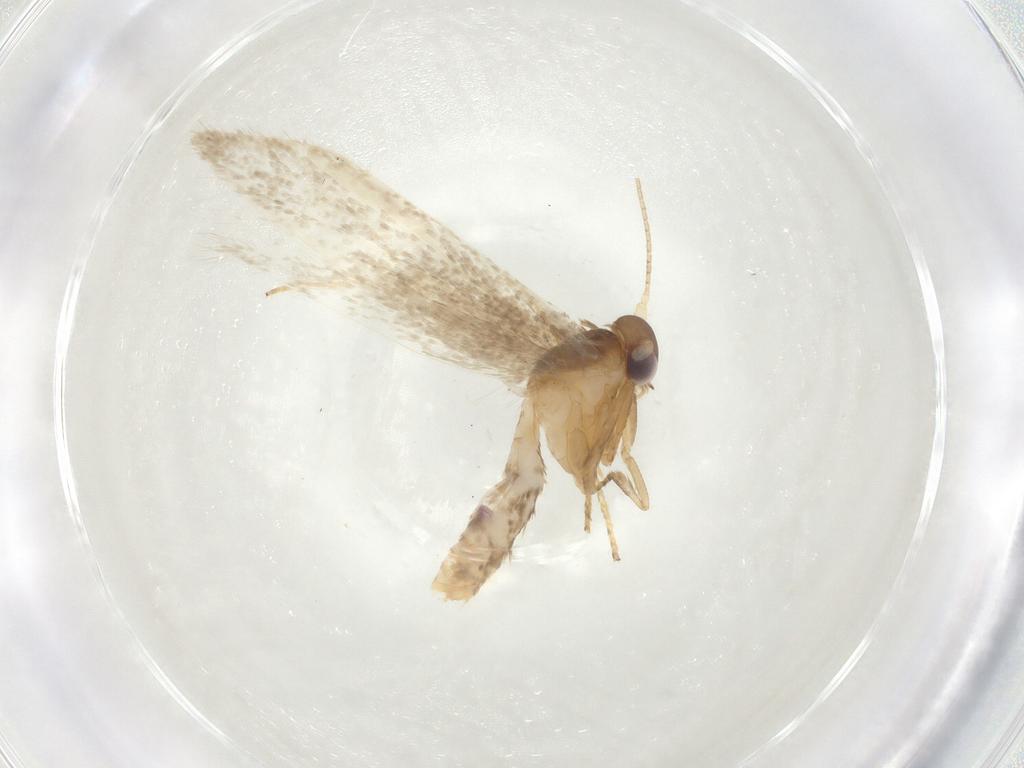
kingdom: Animalia
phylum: Arthropoda
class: Insecta
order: Lepidoptera
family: Blastobasidae
